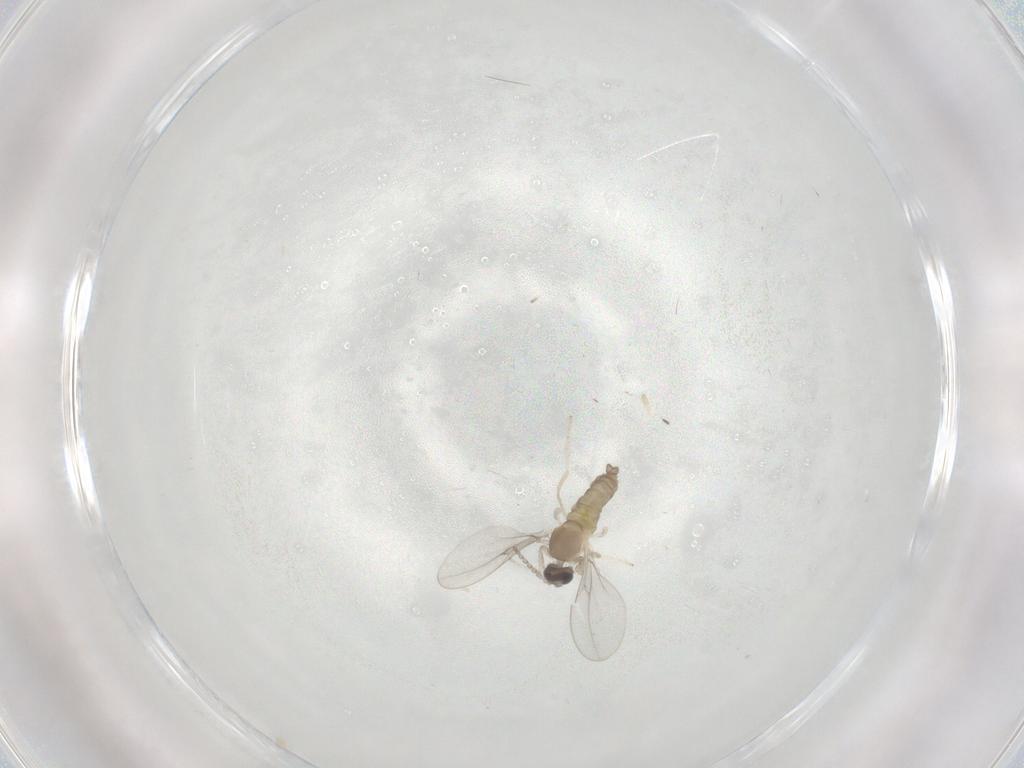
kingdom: Animalia
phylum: Arthropoda
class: Insecta
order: Diptera
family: Cecidomyiidae
